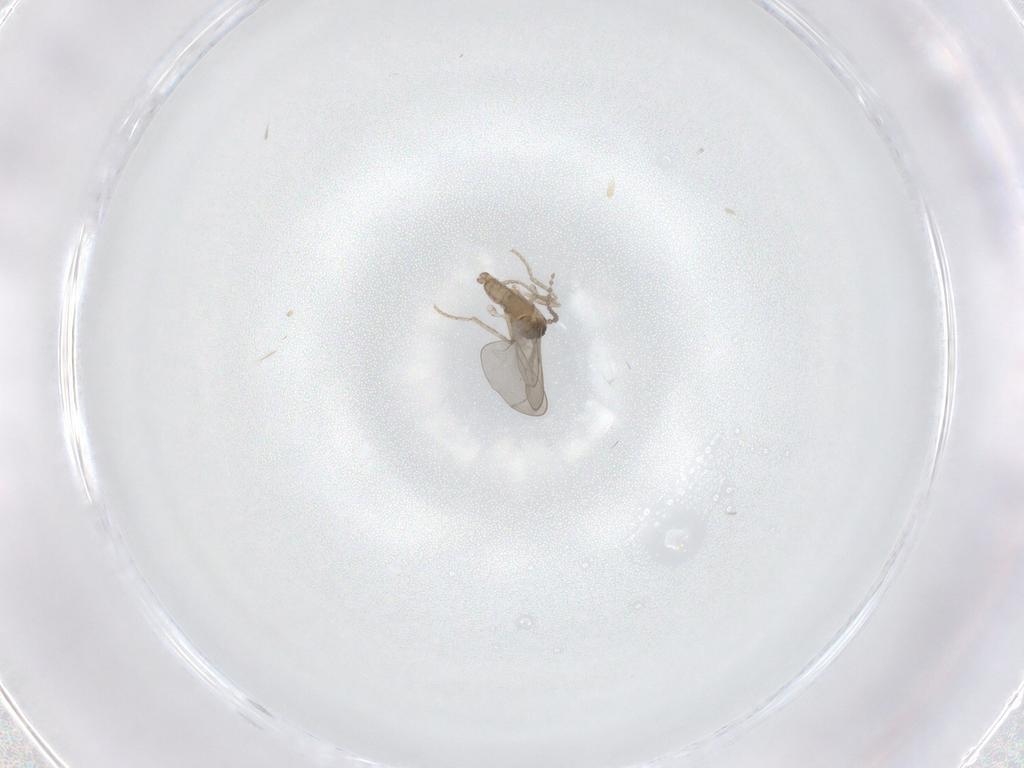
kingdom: Animalia
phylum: Arthropoda
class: Insecta
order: Diptera
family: Cecidomyiidae
